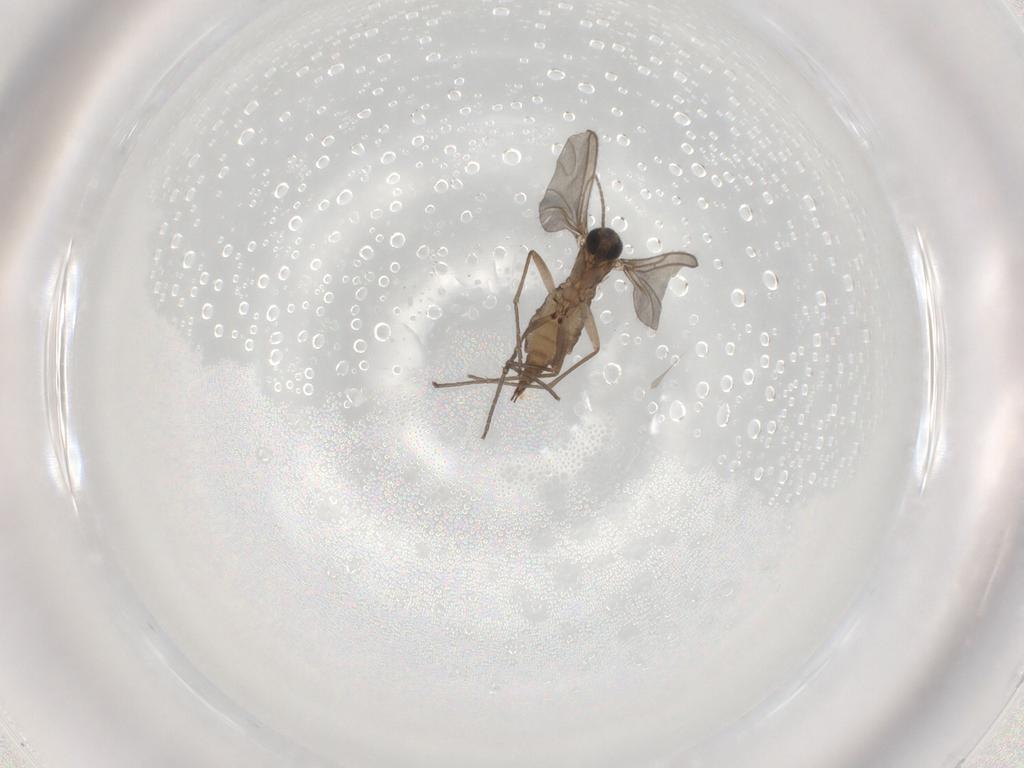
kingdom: Animalia
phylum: Arthropoda
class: Insecta
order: Diptera
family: Sciaridae
